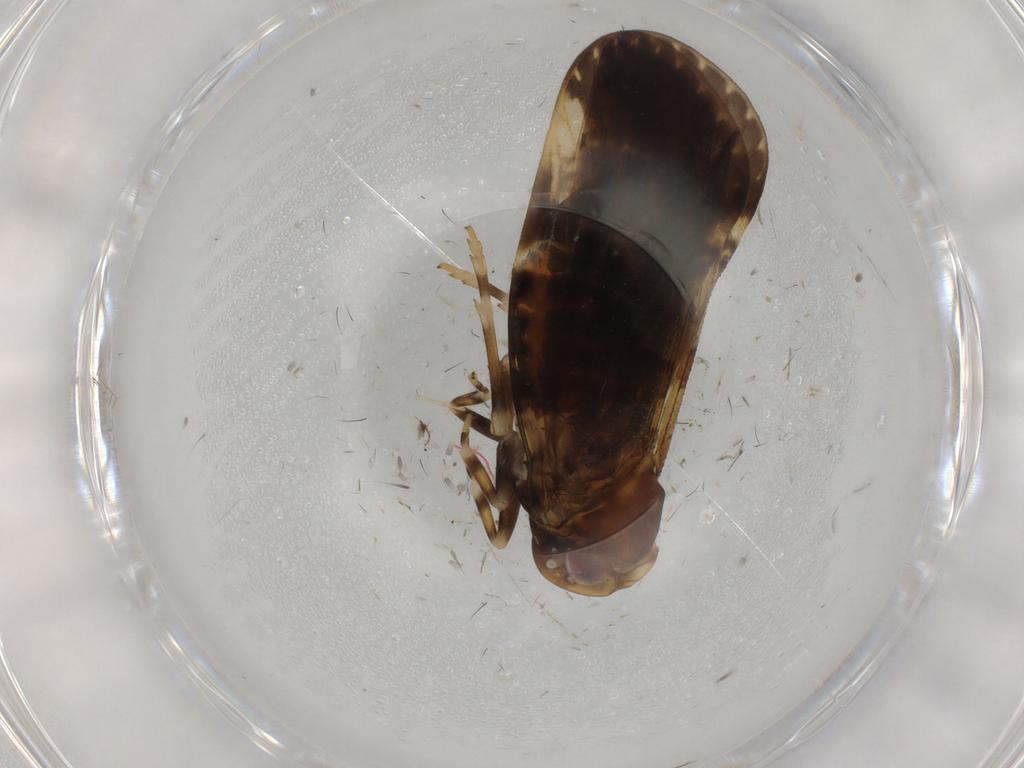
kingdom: Animalia
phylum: Arthropoda
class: Insecta
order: Hemiptera
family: Cixiidae
